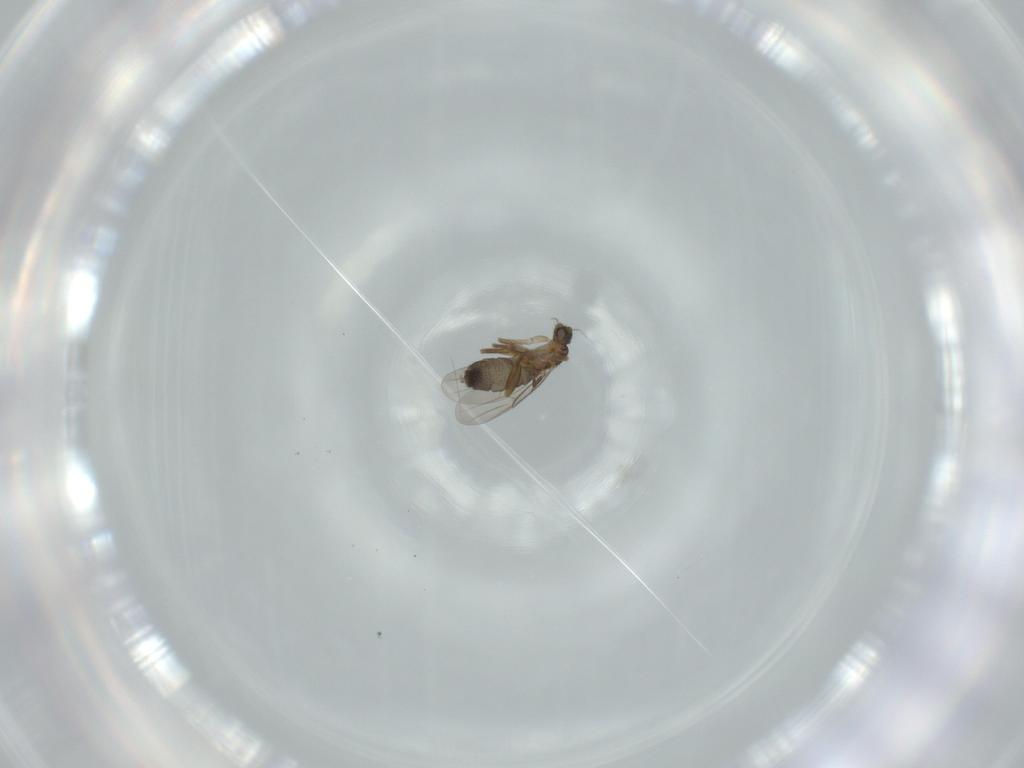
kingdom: Animalia
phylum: Arthropoda
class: Insecta
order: Diptera
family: Phoridae
